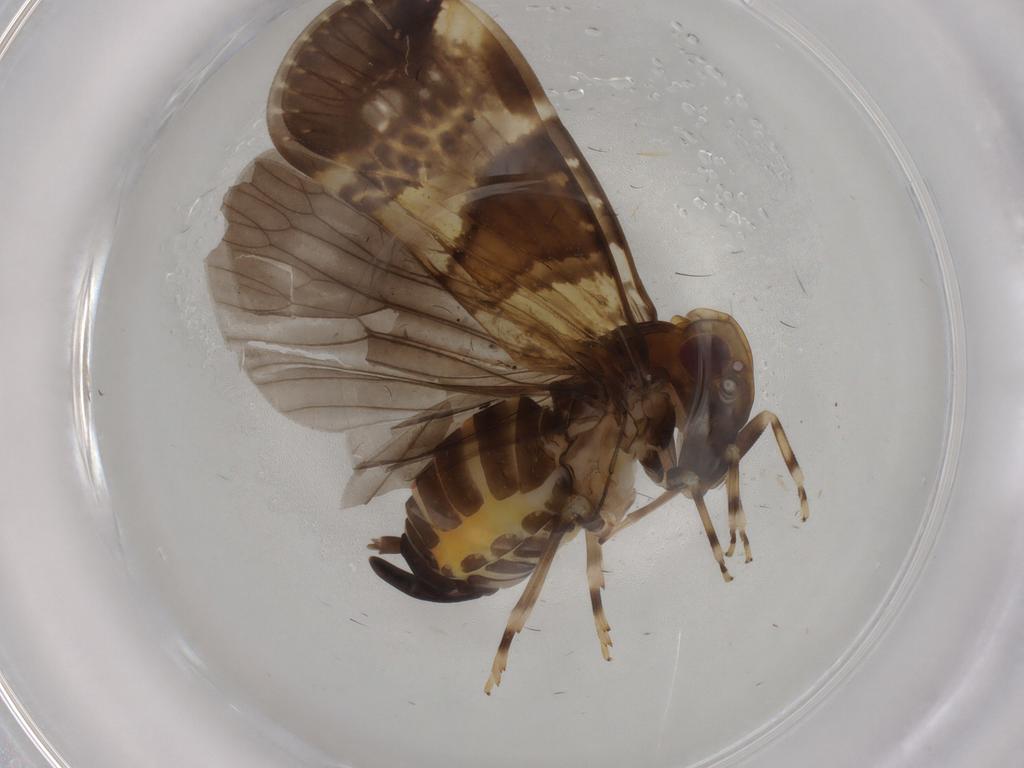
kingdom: Animalia
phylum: Arthropoda
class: Insecta
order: Hemiptera
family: Cixiidae
